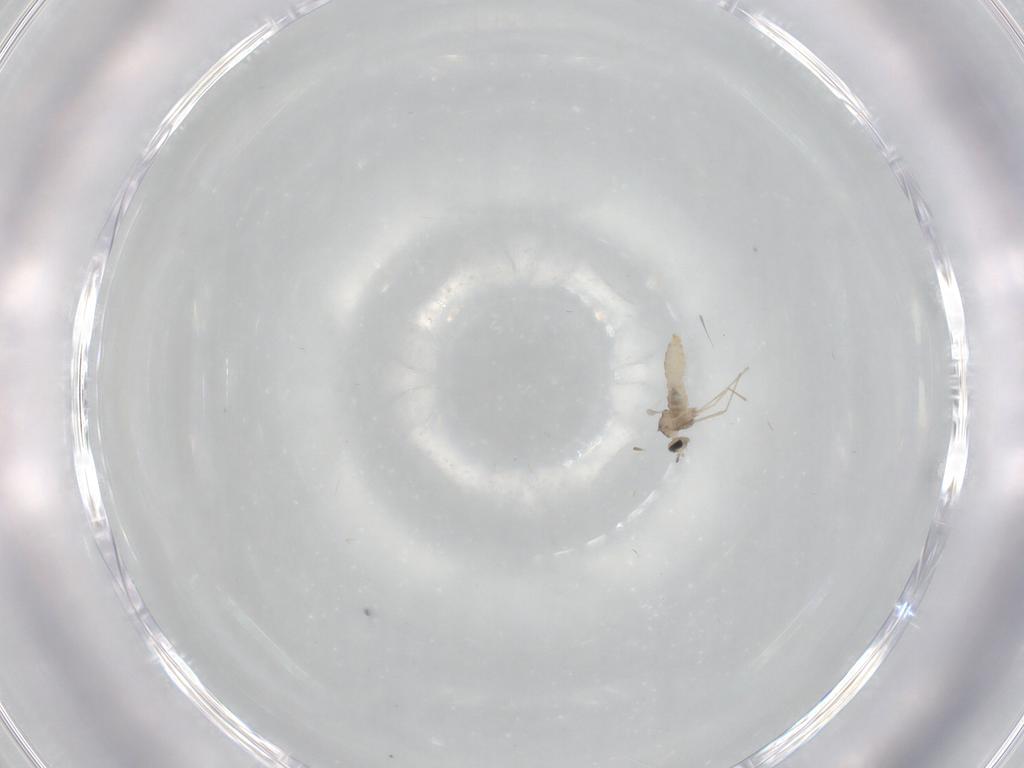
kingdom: Animalia
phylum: Arthropoda
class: Insecta
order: Diptera
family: Cecidomyiidae
